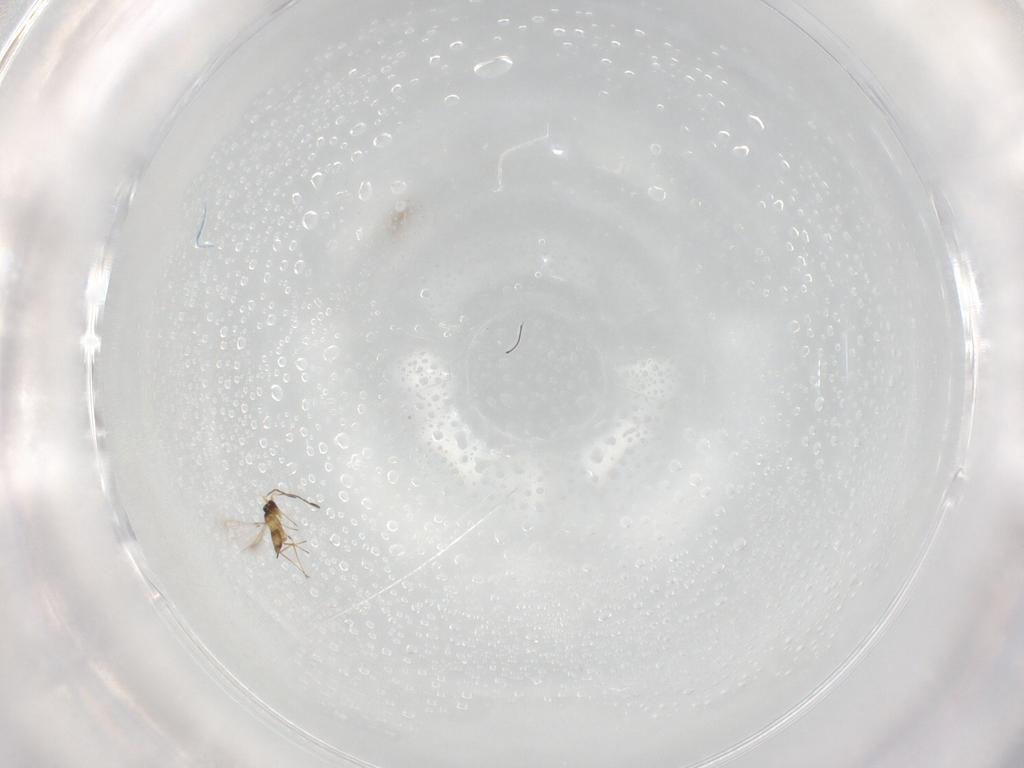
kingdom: Animalia
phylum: Arthropoda
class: Insecta
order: Hymenoptera
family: Mymaridae
